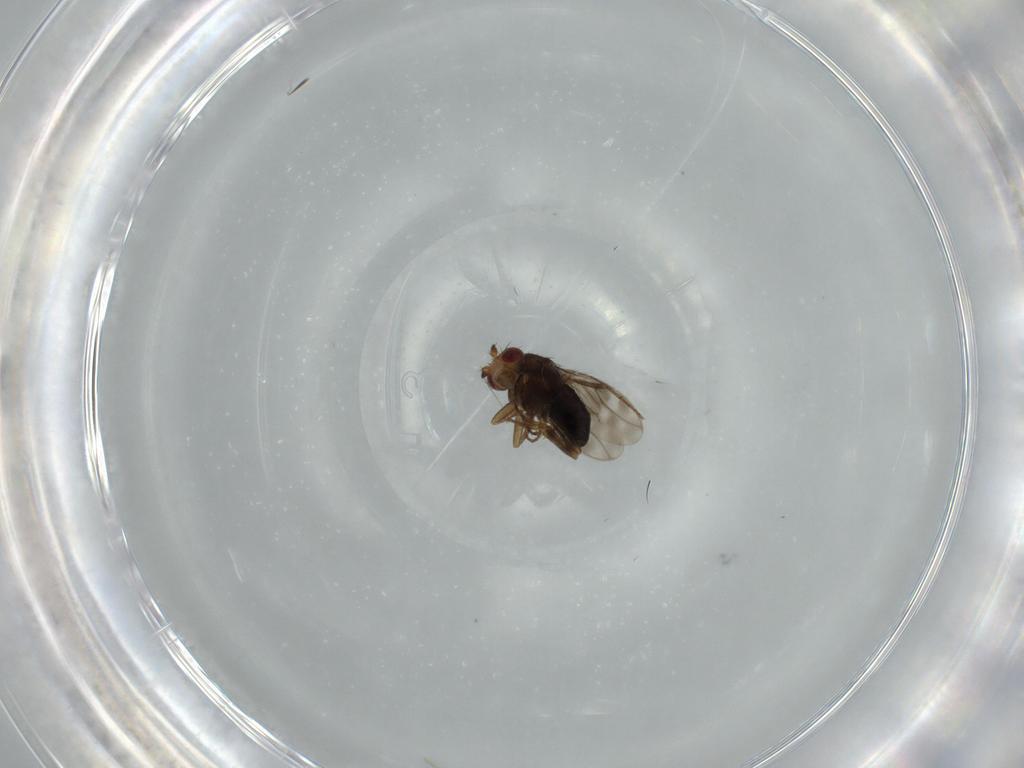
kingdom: Animalia
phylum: Arthropoda
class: Insecta
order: Diptera
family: Sphaeroceridae
